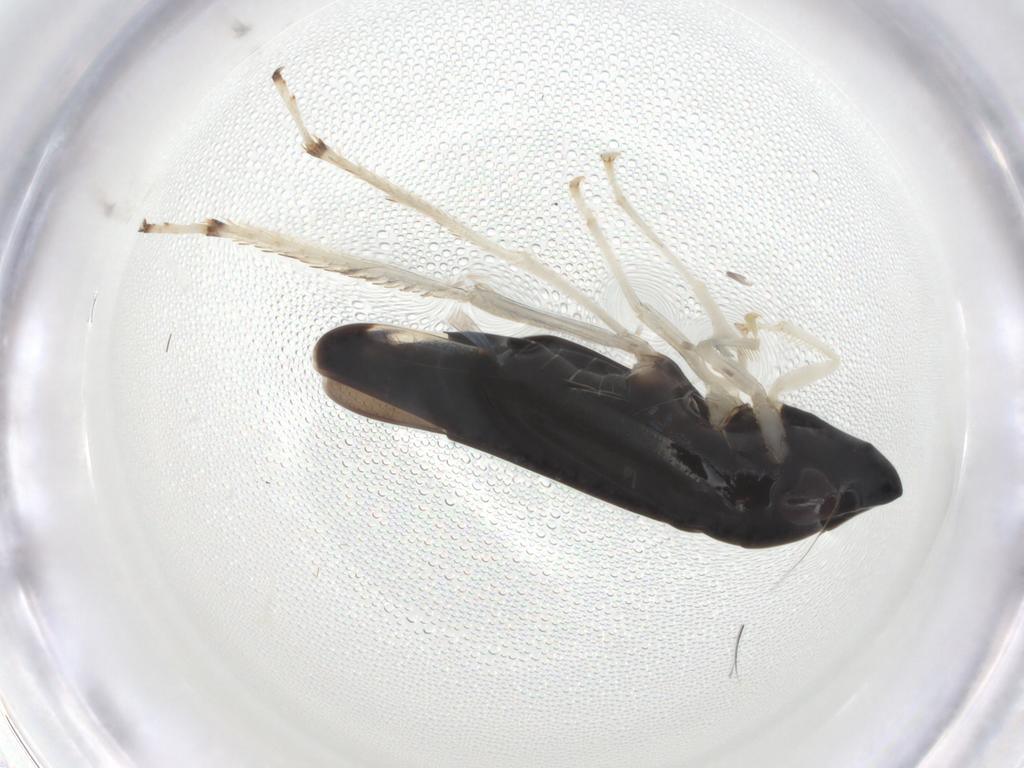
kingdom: Animalia
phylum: Arthropoda
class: Insecta
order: Hemiptera
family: Cicadellidae
